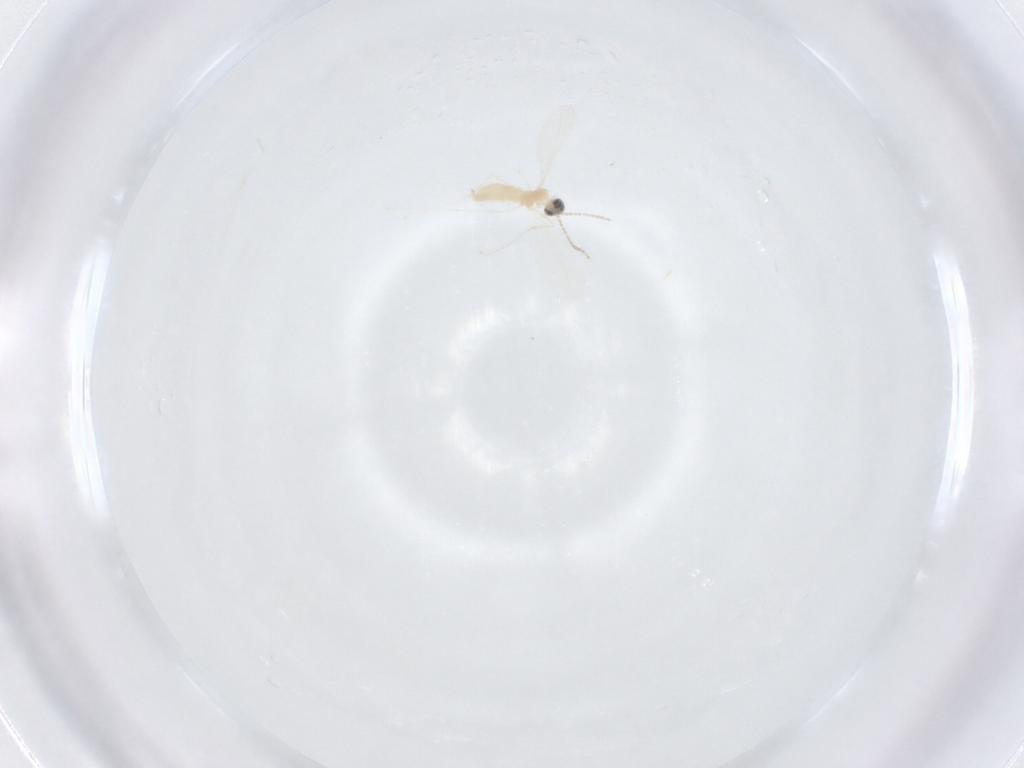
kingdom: Animalia
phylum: Arthropoda
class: Insecta
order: Diptera
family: Cecidomyiidae
